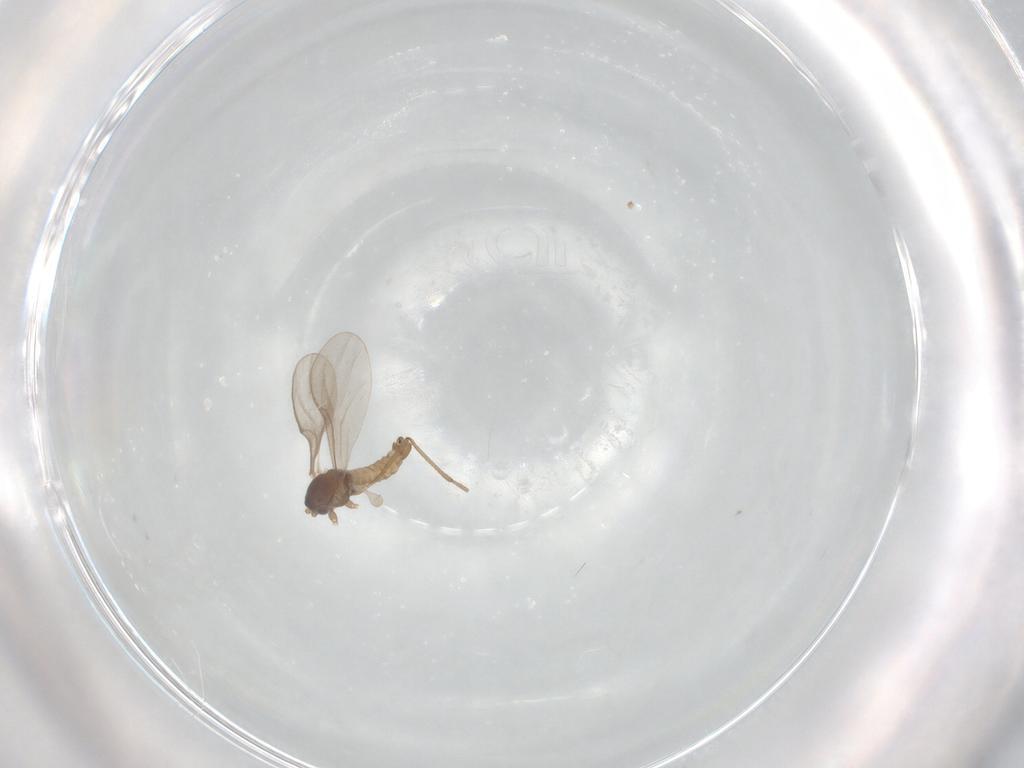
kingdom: Animalia
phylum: Arthropoda
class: Insecta
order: Diptera
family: Cecidomyiidae
